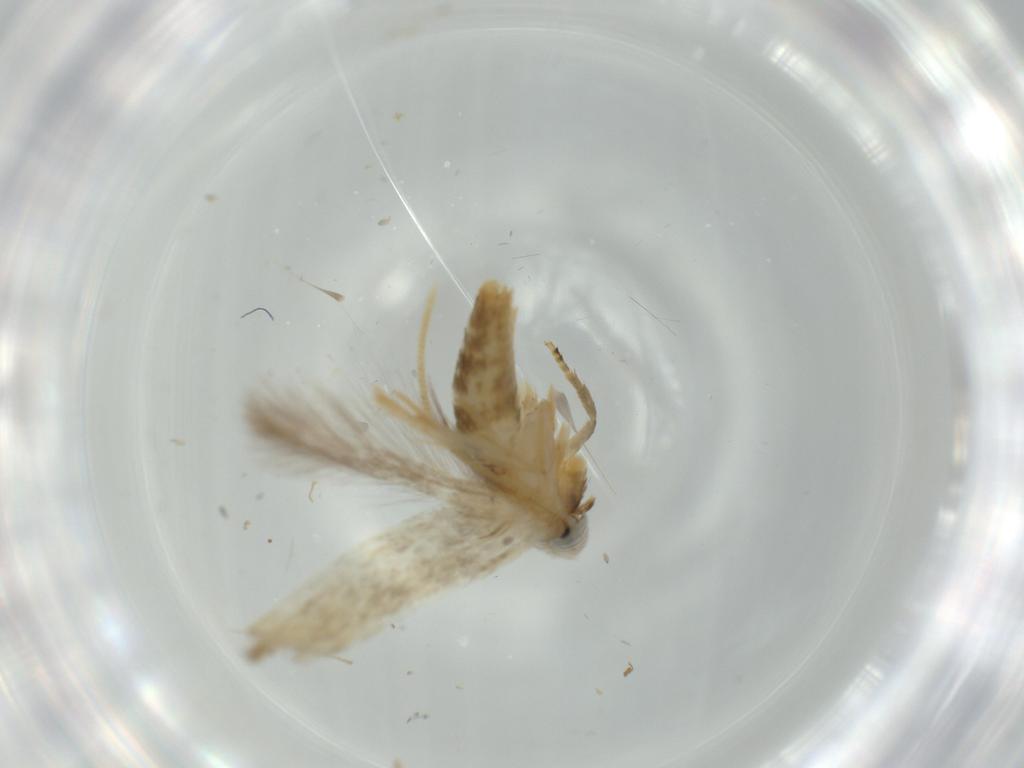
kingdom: Animalia
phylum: Arthropoda
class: Insecta
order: Lepidoptera
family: Opostegidae
